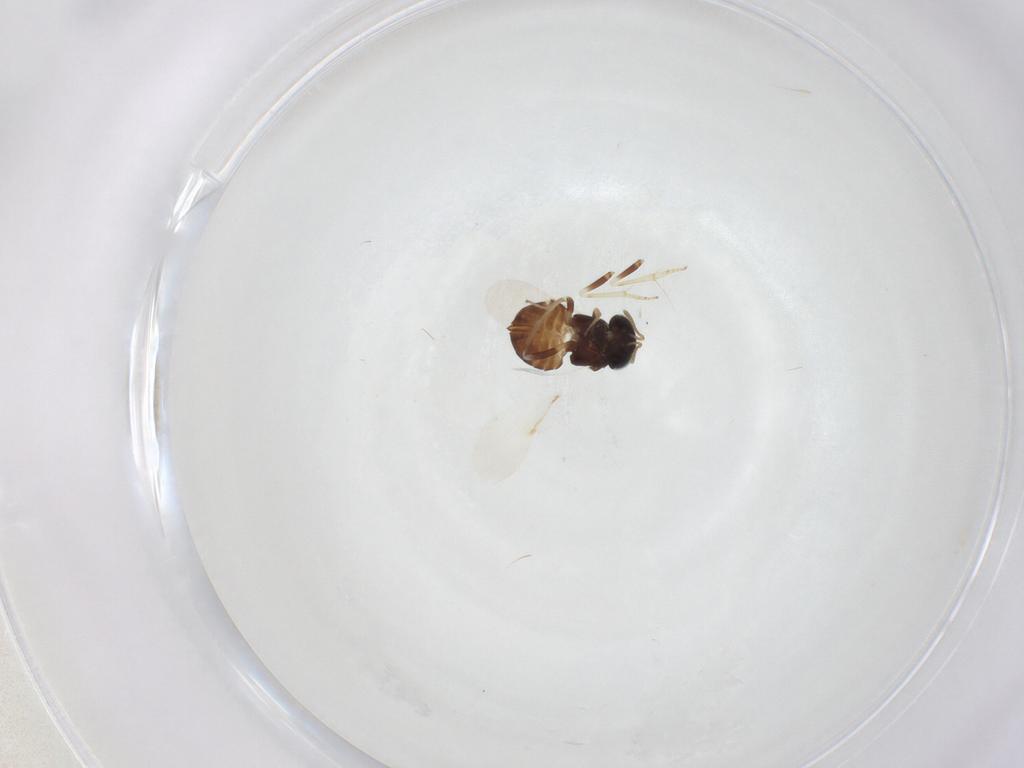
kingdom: Animalia
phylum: Arthropoda
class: Insecta
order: Hymenoptera
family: Encyrtidae
